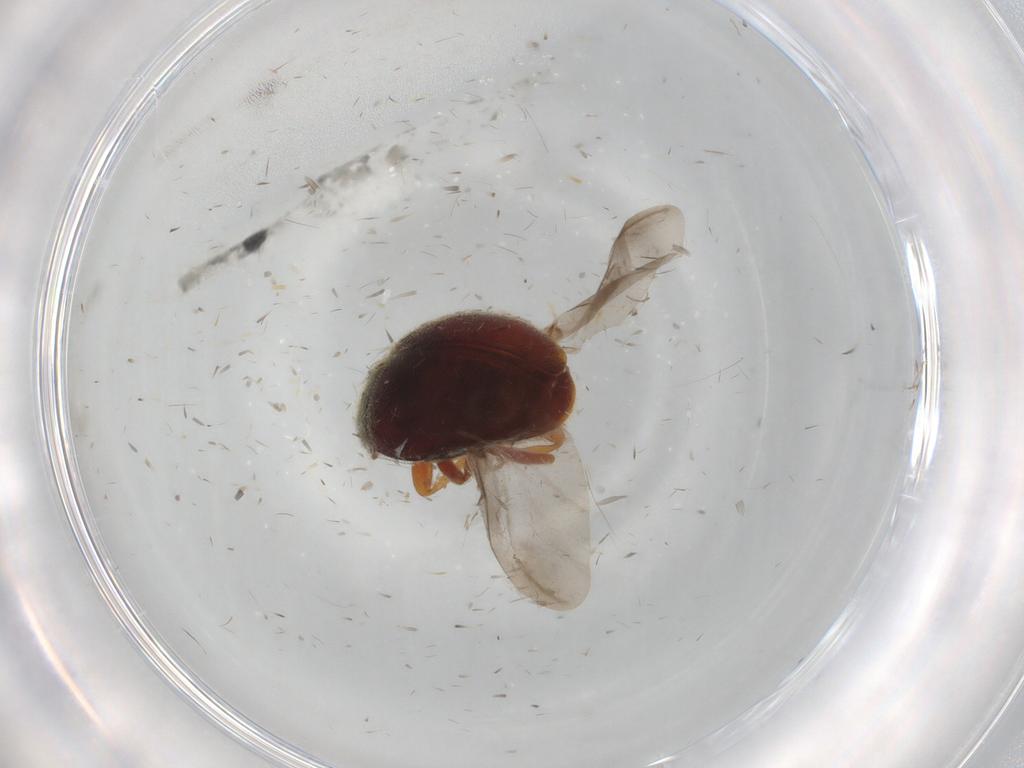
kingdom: Animalia
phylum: Arthropoda
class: Insecta
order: Coleoptera
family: Coccinellidae
